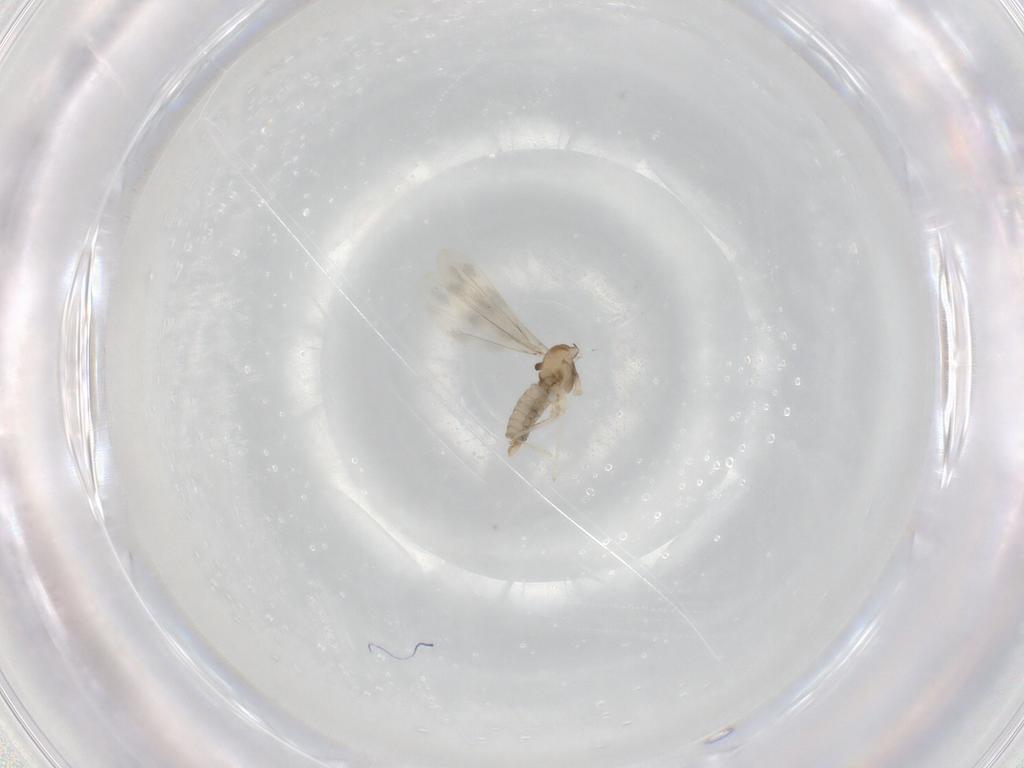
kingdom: Animalia
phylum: Arthropoda
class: Insecta
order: Diptera
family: Cecidomyiidae
